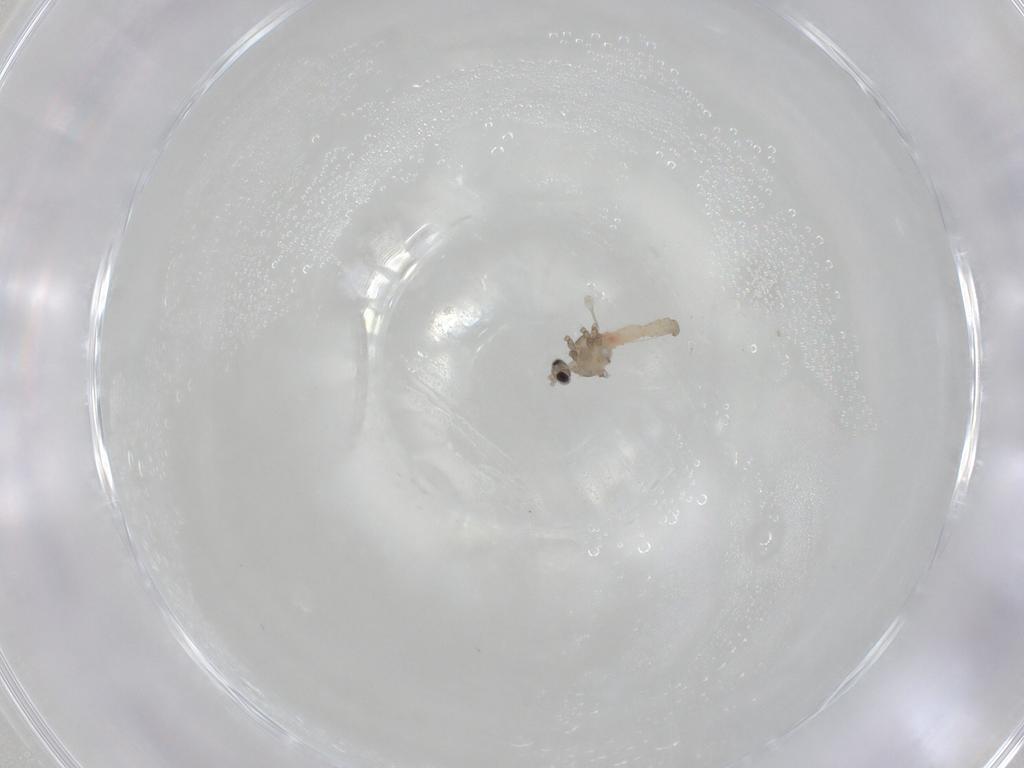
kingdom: Animalia
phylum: Arthropoda
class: Insecta
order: Diptera
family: Cecidomyiidae
